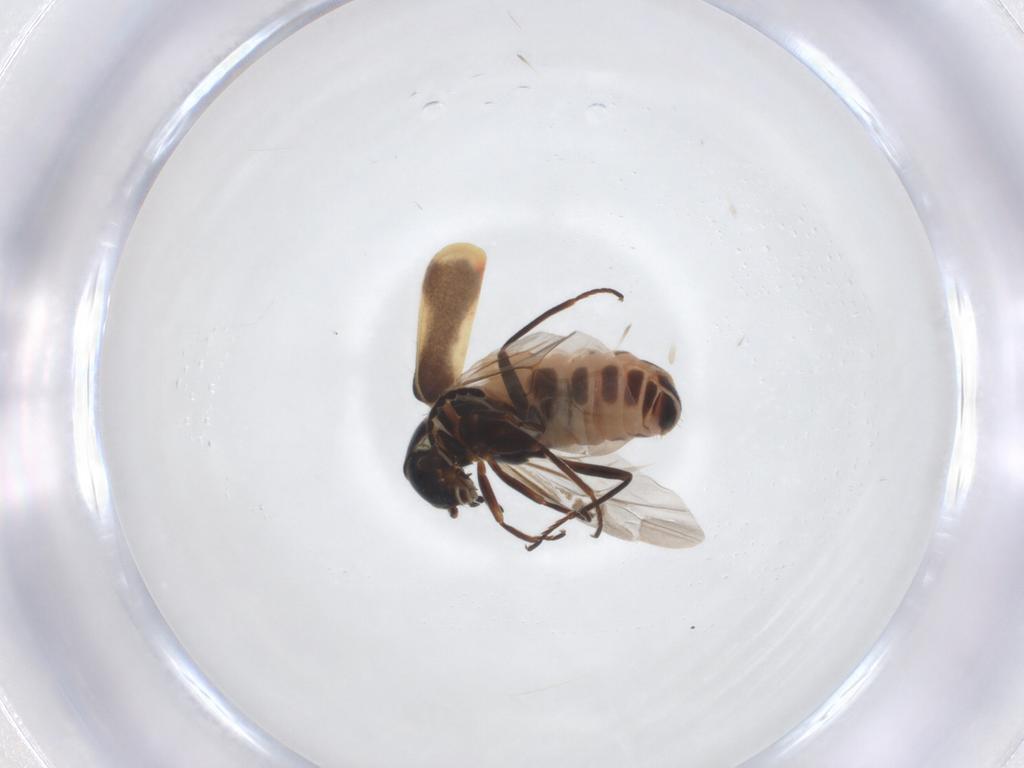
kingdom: Animalia
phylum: Arthropoda
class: Insecta
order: Coleoptera
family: Melyridae
